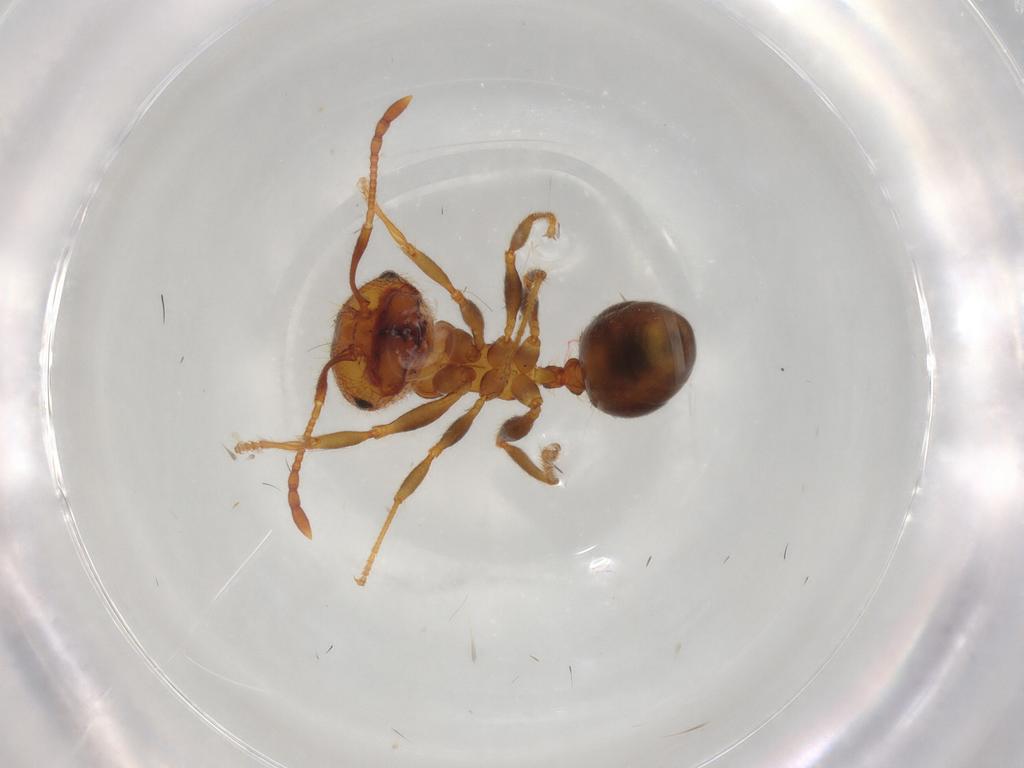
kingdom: Animalia
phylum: Arthropoda
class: Insecta
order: Hymenoptera
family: Formicidae
